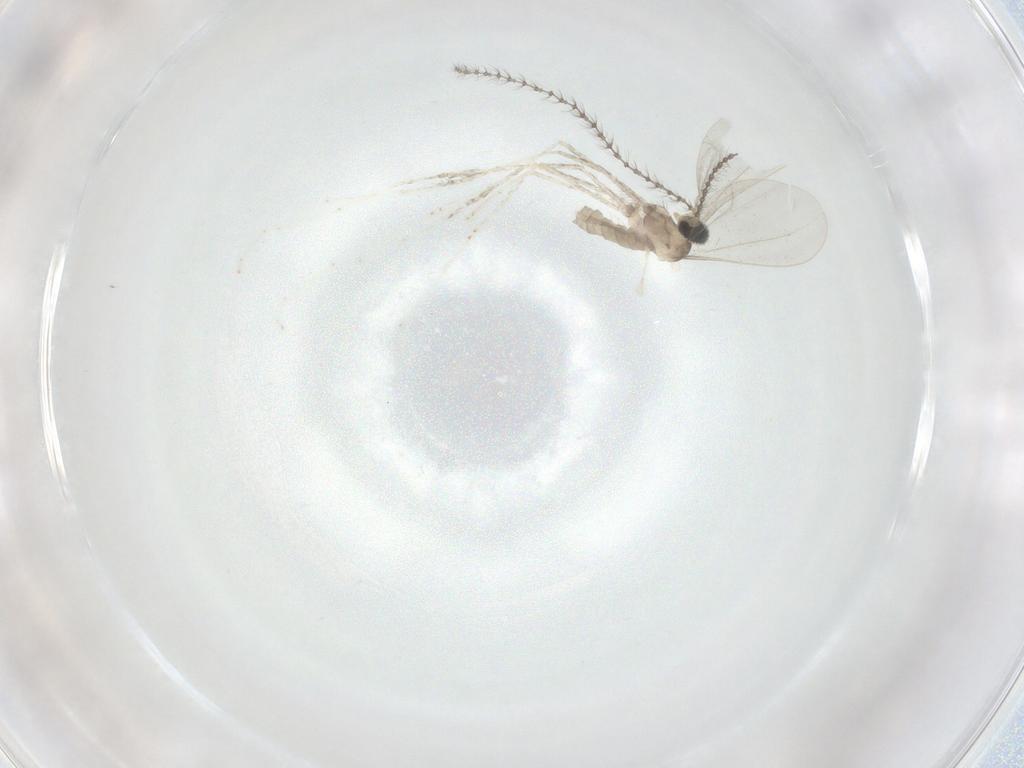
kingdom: Animalia
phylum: Arthropoda
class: Insecta
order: Diptera
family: Cecidomyiidae
